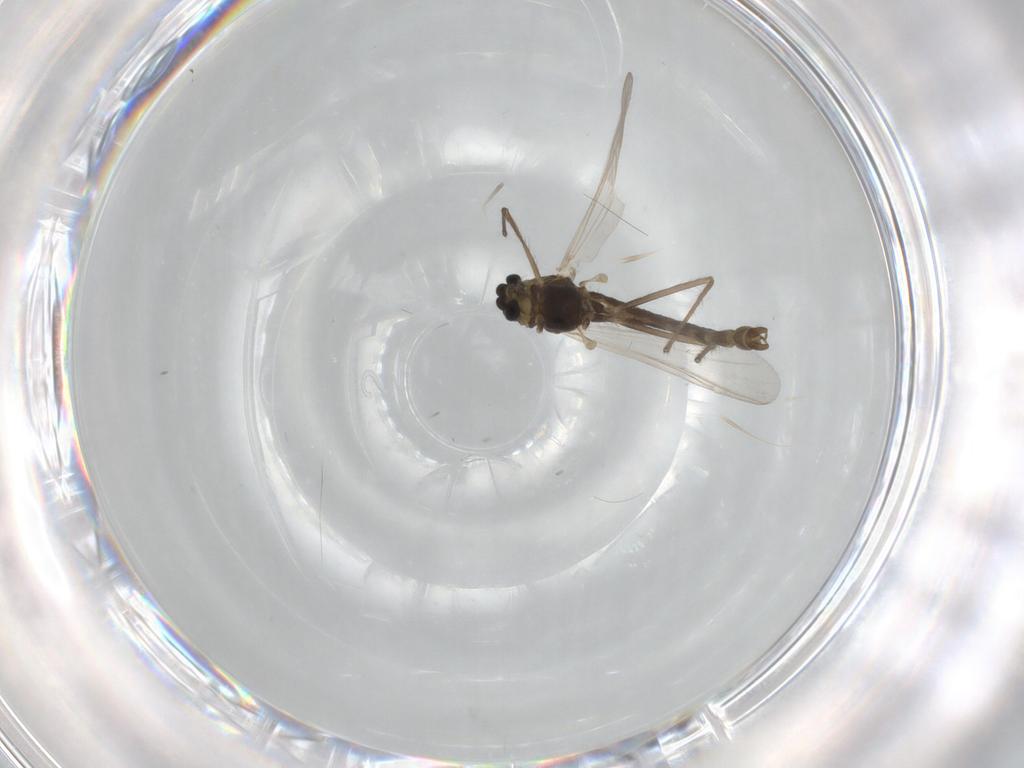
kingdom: Animalia
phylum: Arthropoda
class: Insecta
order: Diptera
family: Chironomidae
